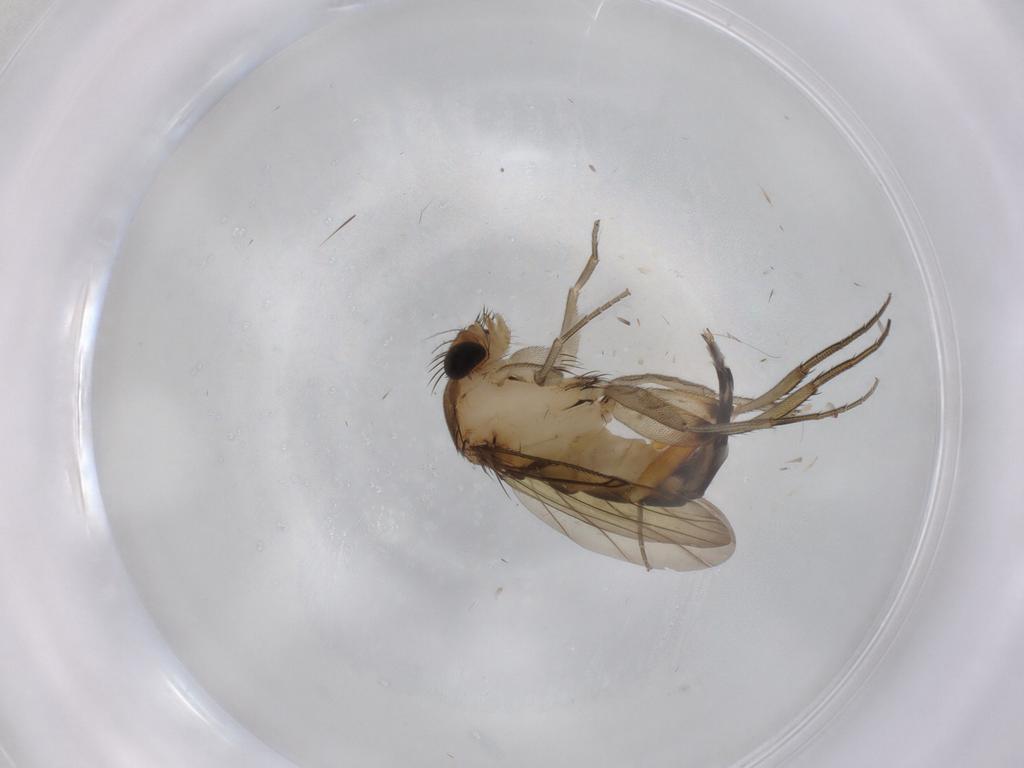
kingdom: Animalia
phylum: Arthropoda
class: Insecta
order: Diptera
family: Phoridae
